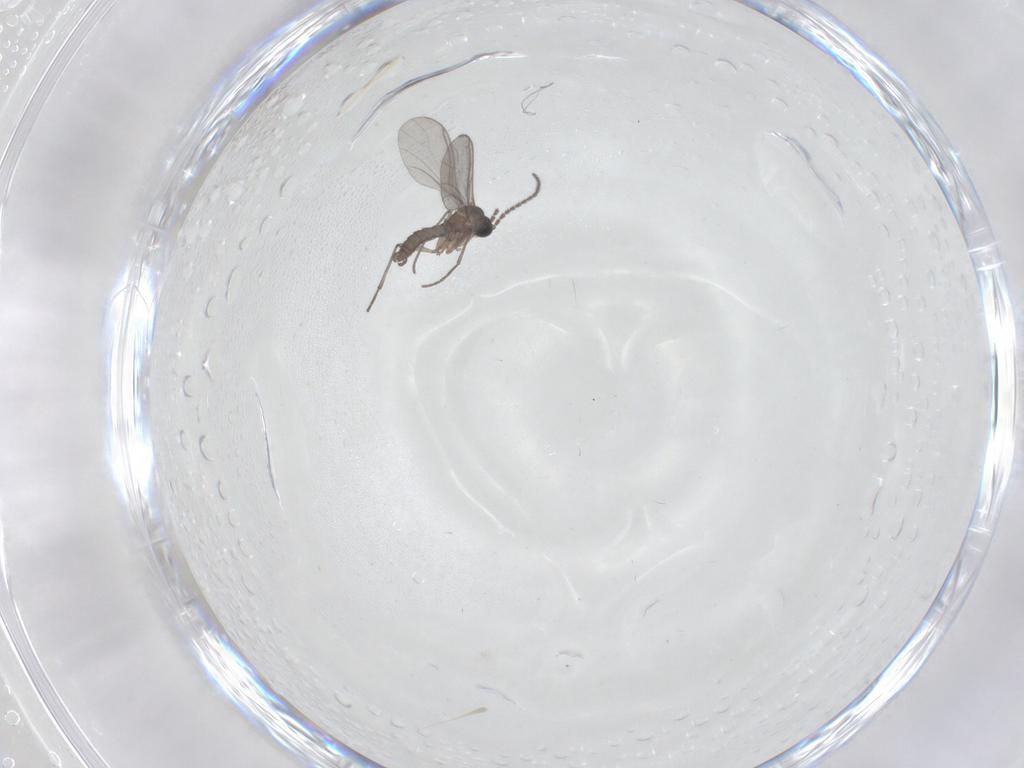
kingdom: Animalia
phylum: Arthropoda
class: Insecta
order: Diptera
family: Sciaridae
